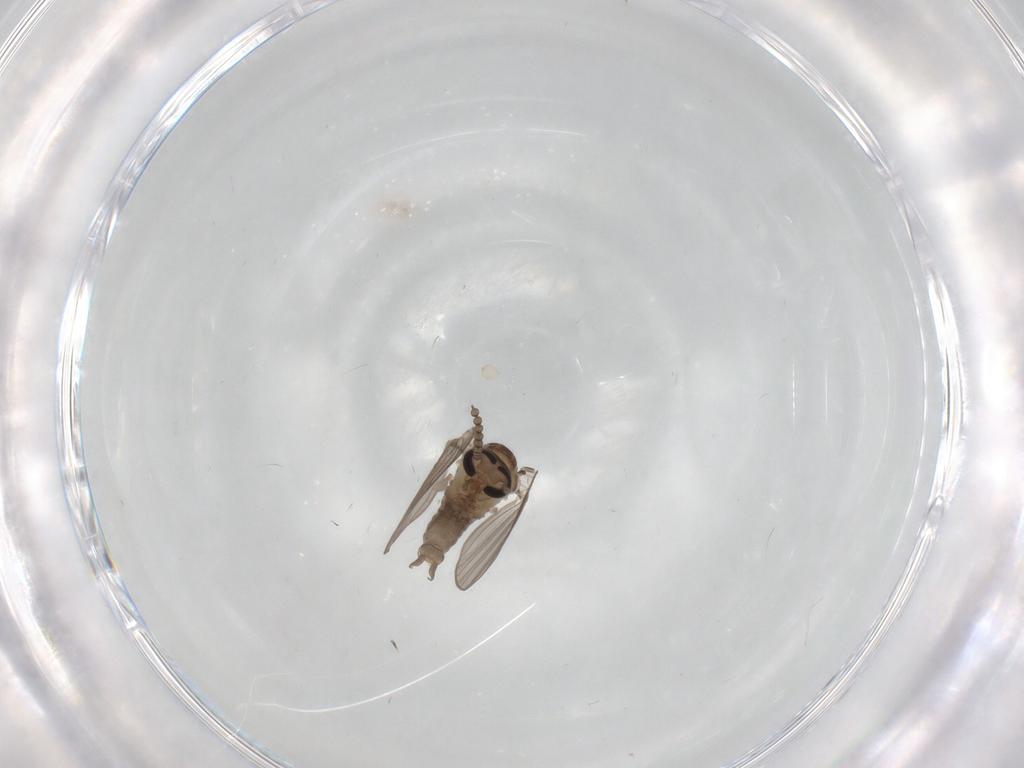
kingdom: Animalia
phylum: Arthropoda
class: Insecta
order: Diptera
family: Psychodidae
